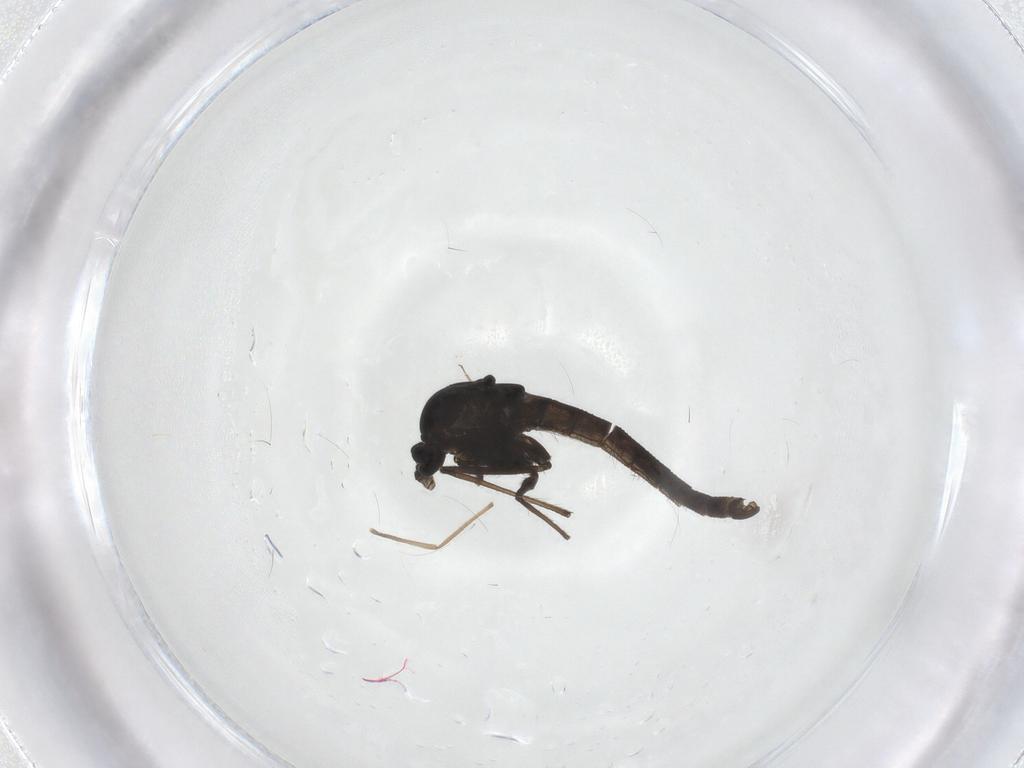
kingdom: Animalia
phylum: Arthropoda
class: Insecta
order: Diptera
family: Chironomidae
